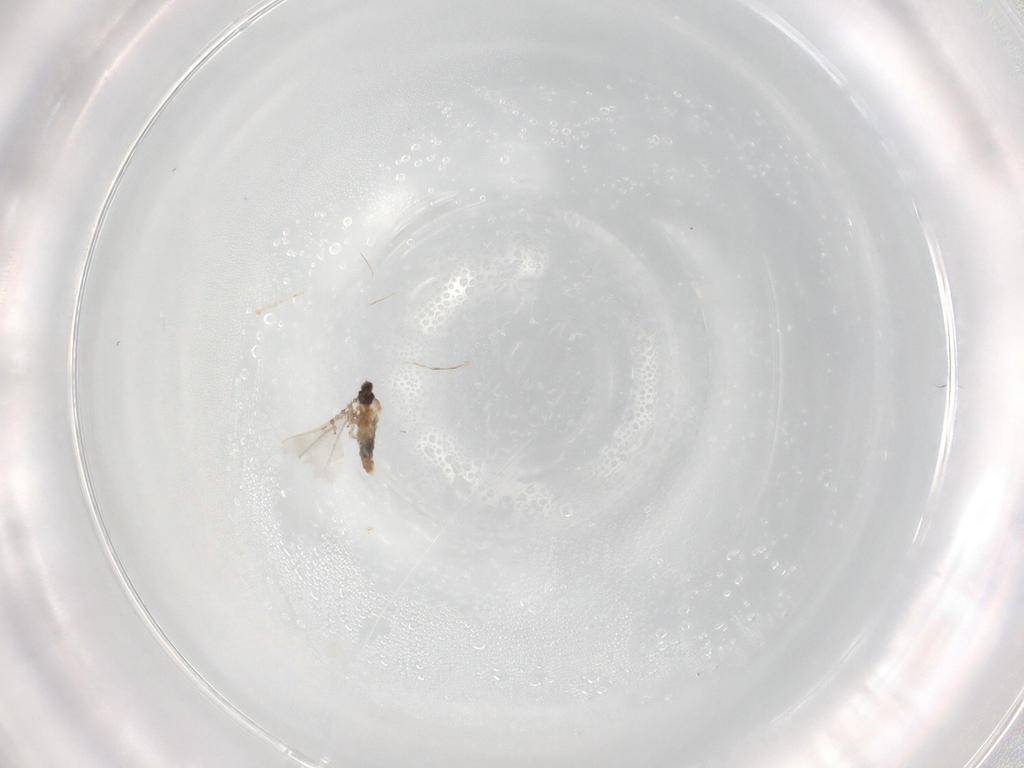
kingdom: Animalia
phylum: Arthropoda
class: Insecta
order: Diptera
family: Cecidomyiidae
